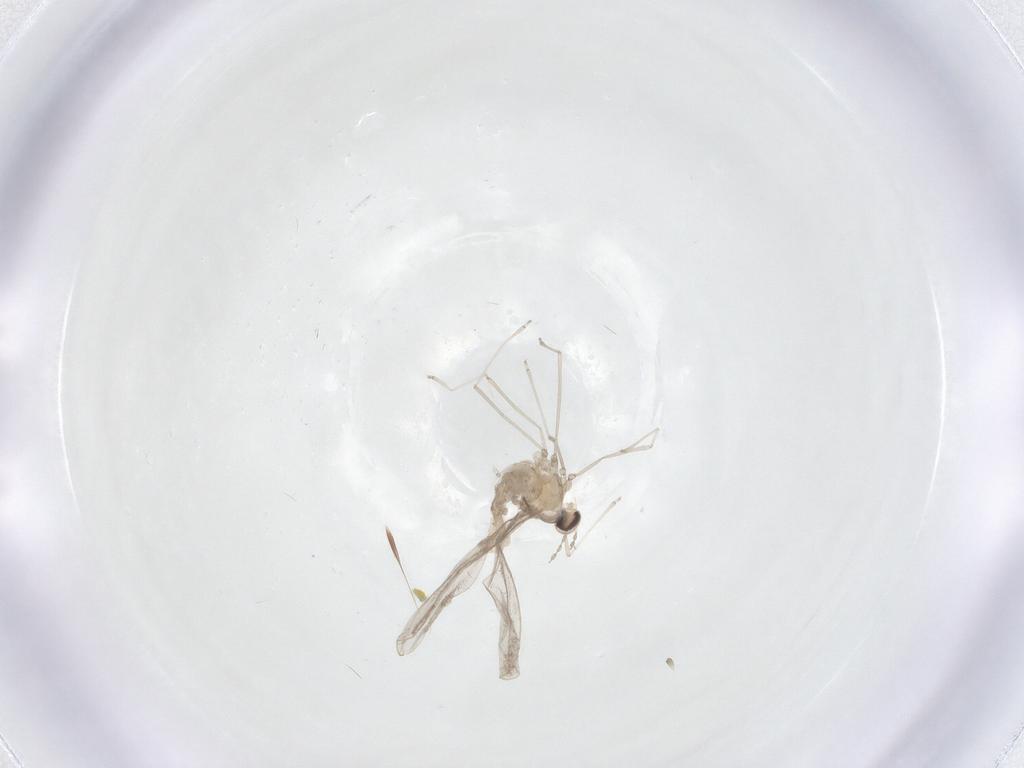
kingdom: Animalia
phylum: Arthropoda
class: Insecta
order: Diptera
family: Cecidomyiidae
